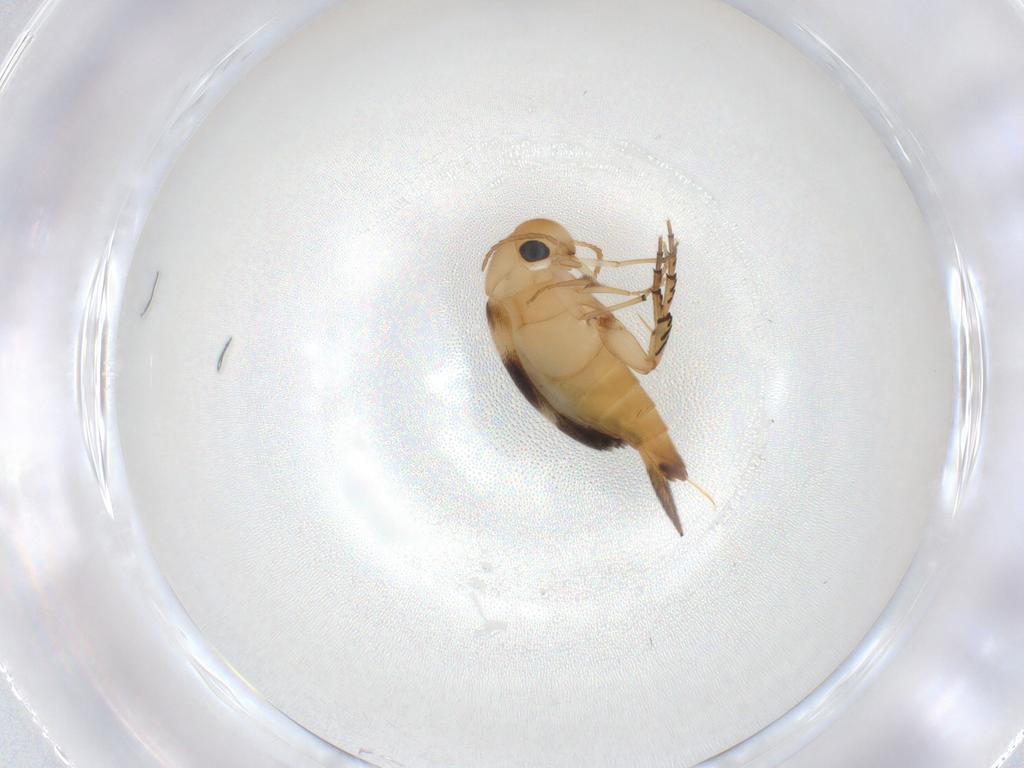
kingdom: Animalia
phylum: Arthropoda
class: Insecta
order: Coleoptera
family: Mordellidae
